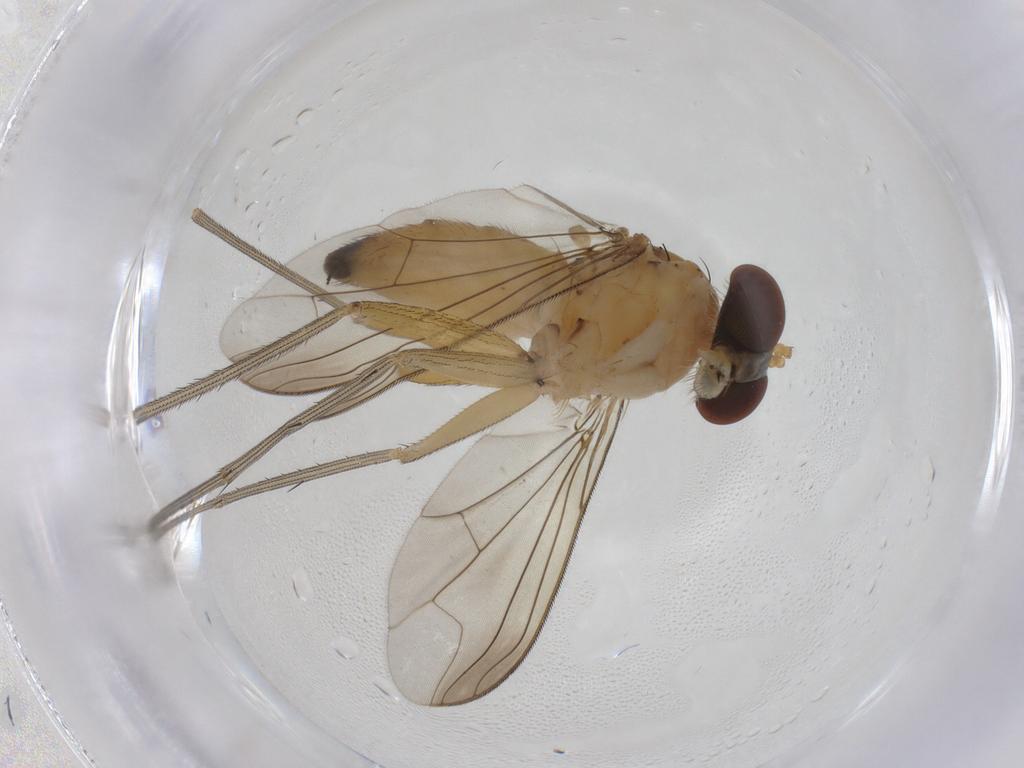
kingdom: Animalia
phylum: Arthropoda
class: Insecta
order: Diptera
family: Dolichopodidae
